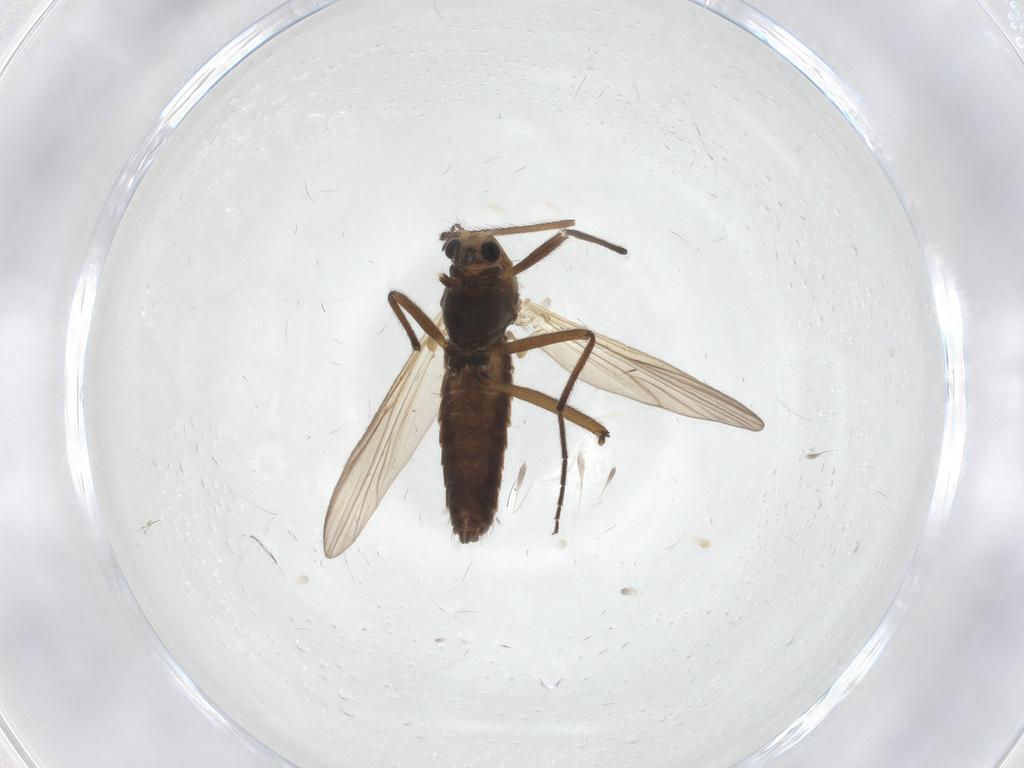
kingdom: Animalia
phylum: Arthropoda
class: Insecta
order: Diptera
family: Chironomidae
